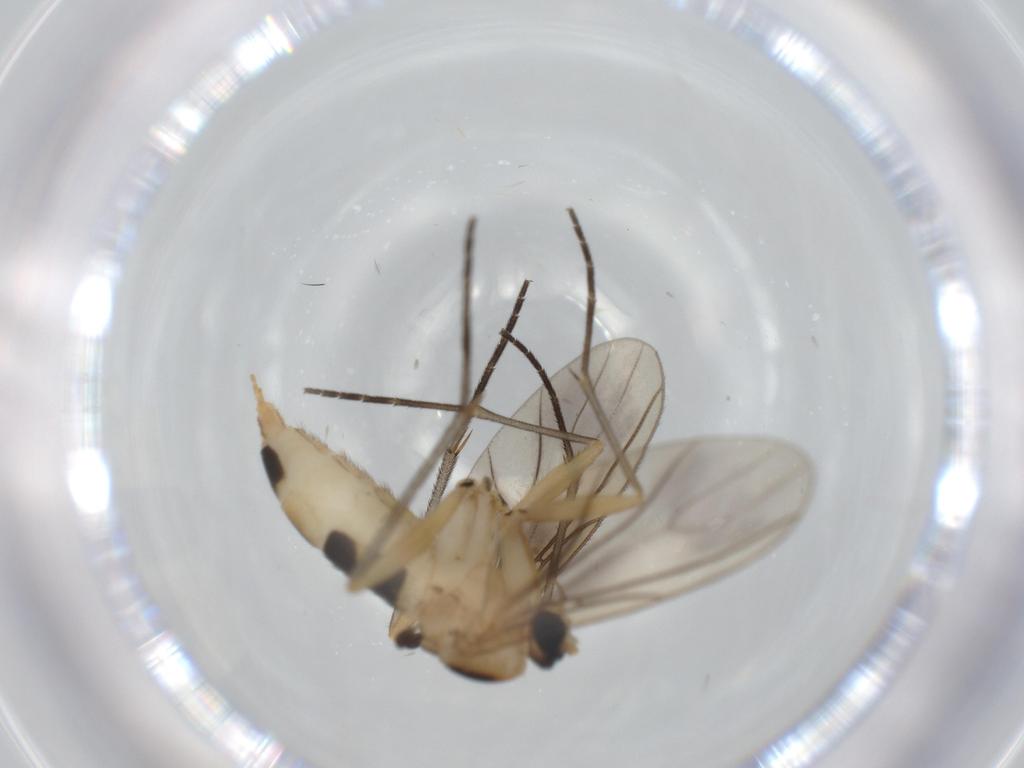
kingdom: Animalia
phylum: Arthropoda
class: Insecta
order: Diptera
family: Sciaridae
